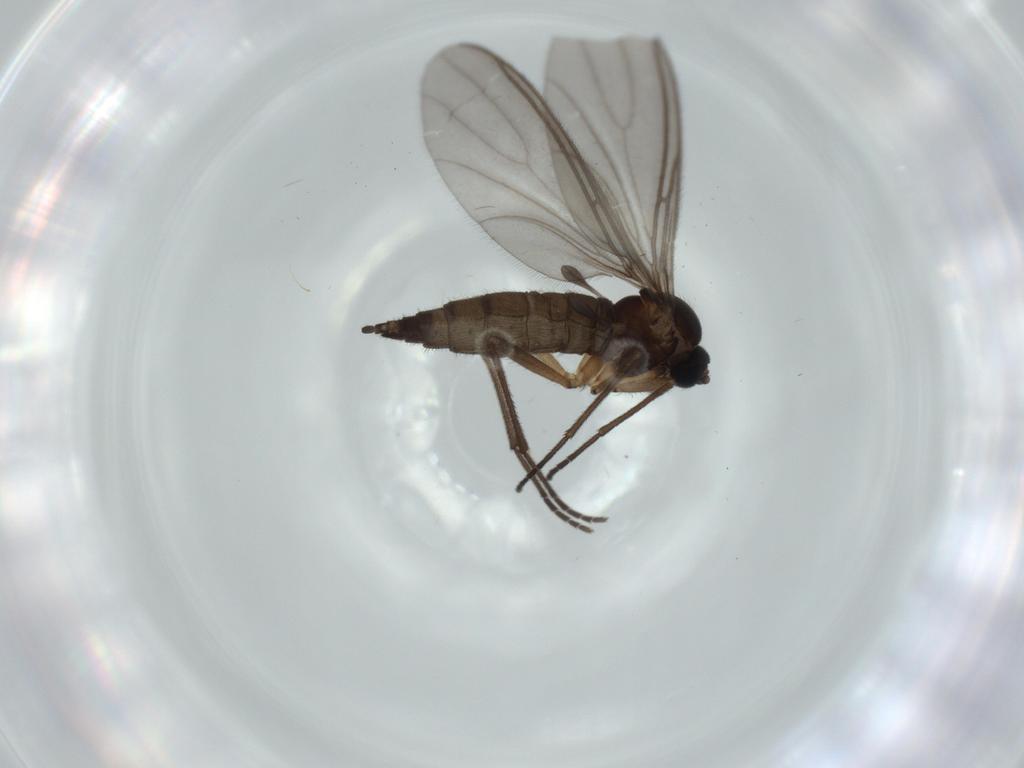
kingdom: Animalia
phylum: Arthropoda
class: Insecta
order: Diptera
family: Sciaridae
